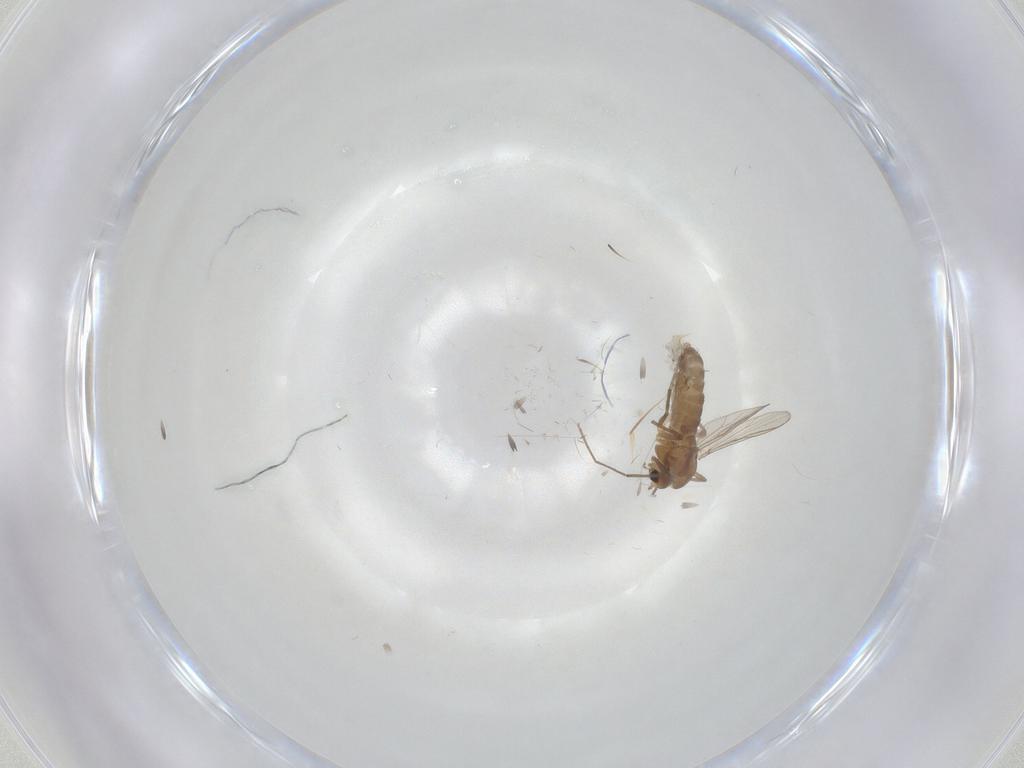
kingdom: Animalia
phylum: Arthropoda
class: Insecta
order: Diptera
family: Chironomidae
